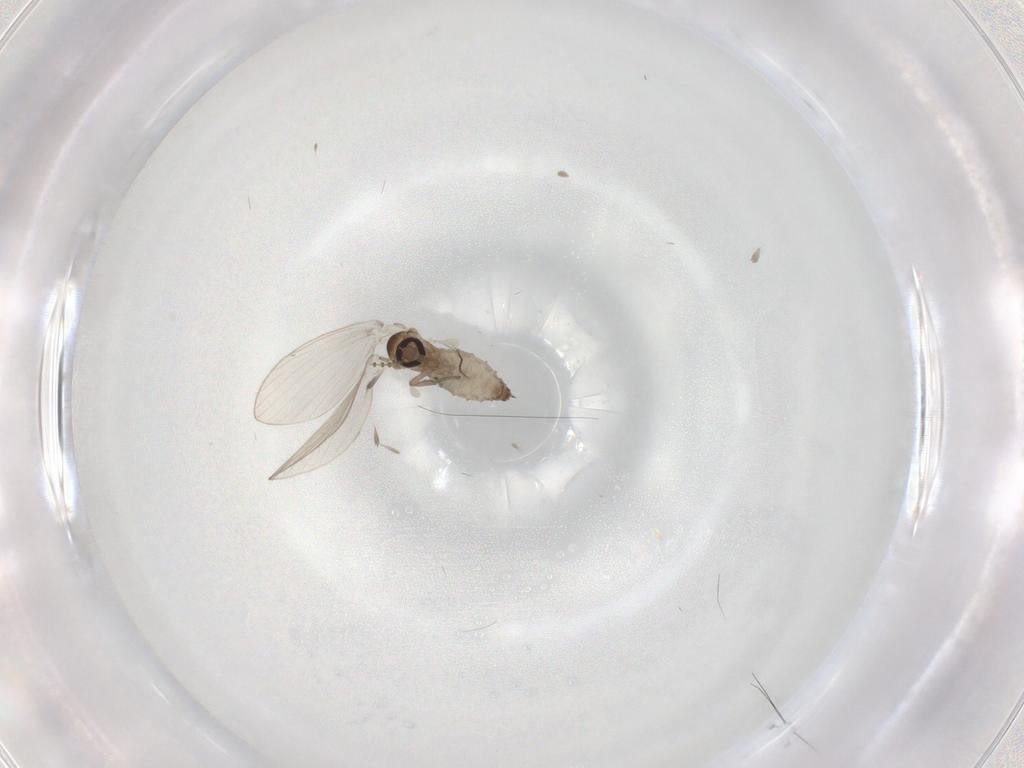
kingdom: Animalia
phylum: Arthropoda
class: Insecta
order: Diptera
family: Psychodidae
